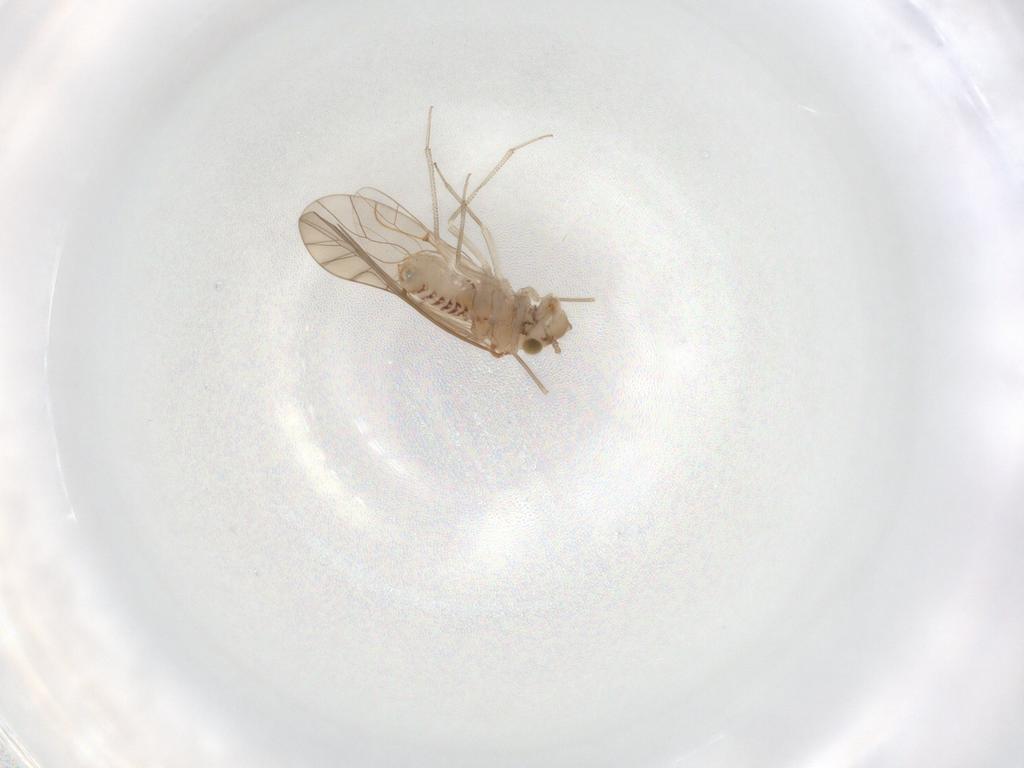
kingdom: Animalia
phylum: Arthropoda
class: Insecta
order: Psocodea
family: Lachesillidae
